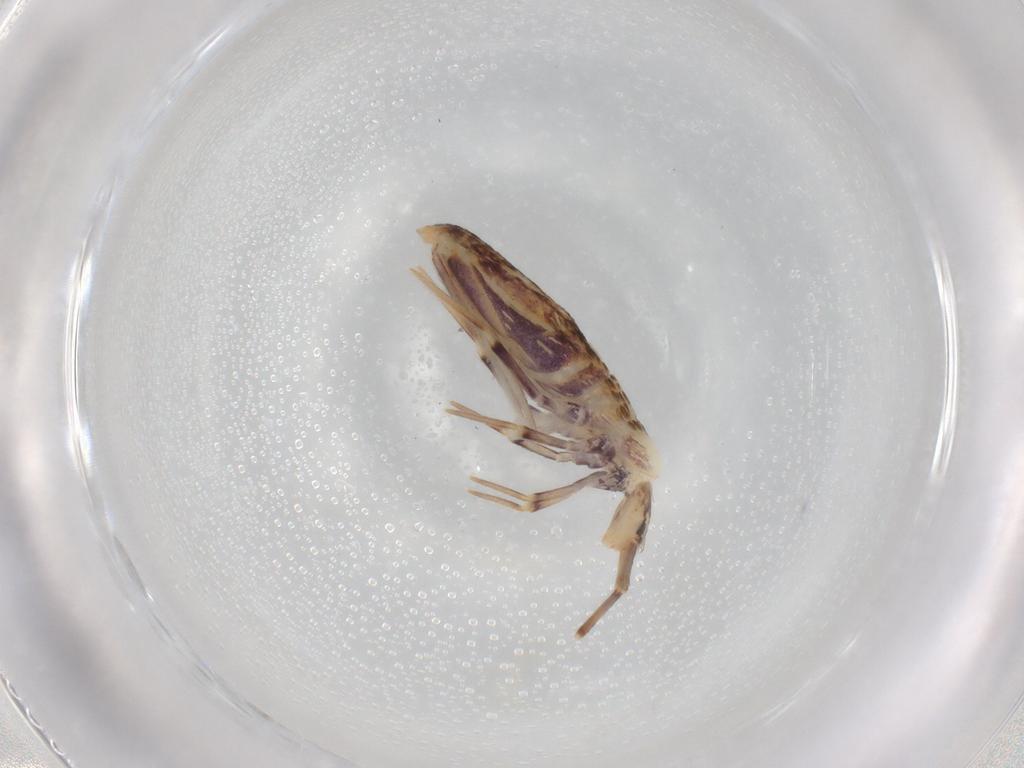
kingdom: Animalia
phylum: Arthropoda
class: Collembola
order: Poduromorpha
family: Hypogastruridae
